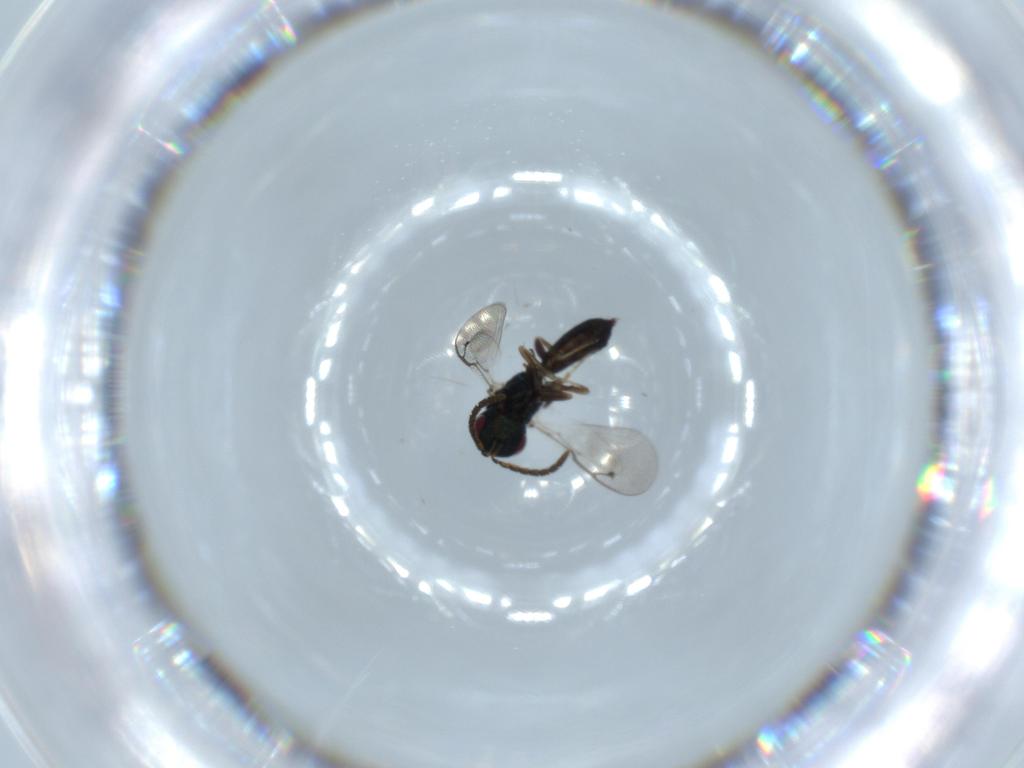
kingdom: Animalia
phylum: Arthropoda
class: Insecta
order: Hymenoptera
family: Pteromalidae
